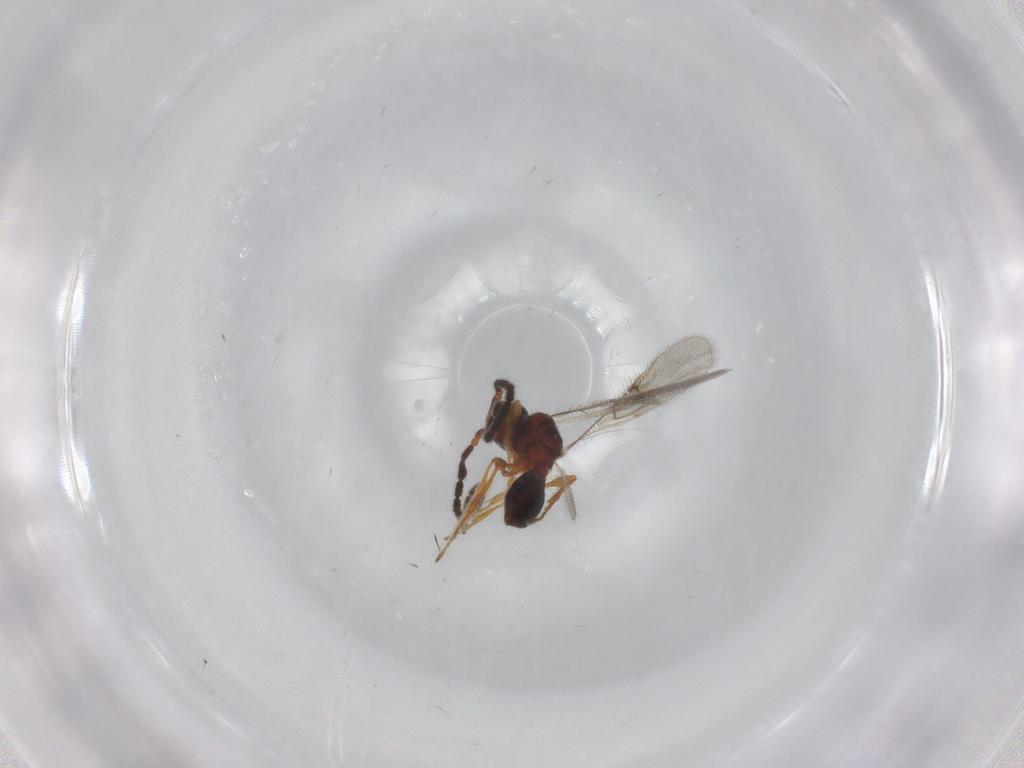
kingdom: Animalia
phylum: Arthropoda
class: Insecta
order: Hymenoptera
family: Diapriidae
